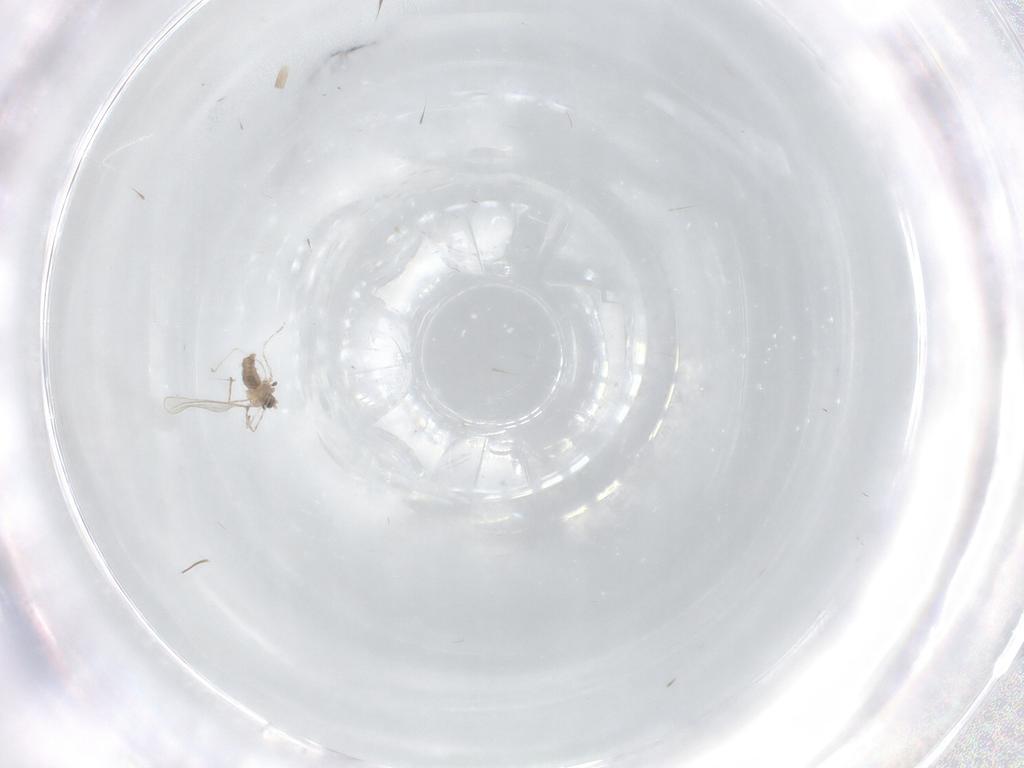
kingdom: Animalia
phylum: Arthropoda
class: Insecta
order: Diptera
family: Cecidomyiidae
